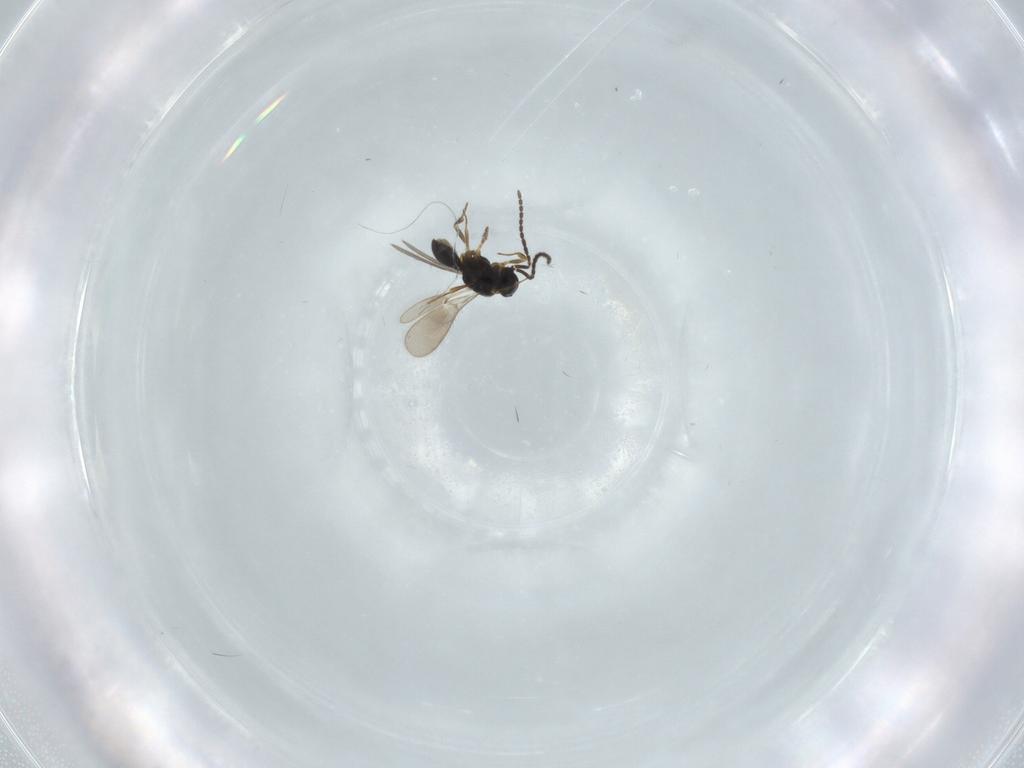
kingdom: Animalia
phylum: Arthropoda
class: Insecta
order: Hymenoptera
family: Scelionidae
